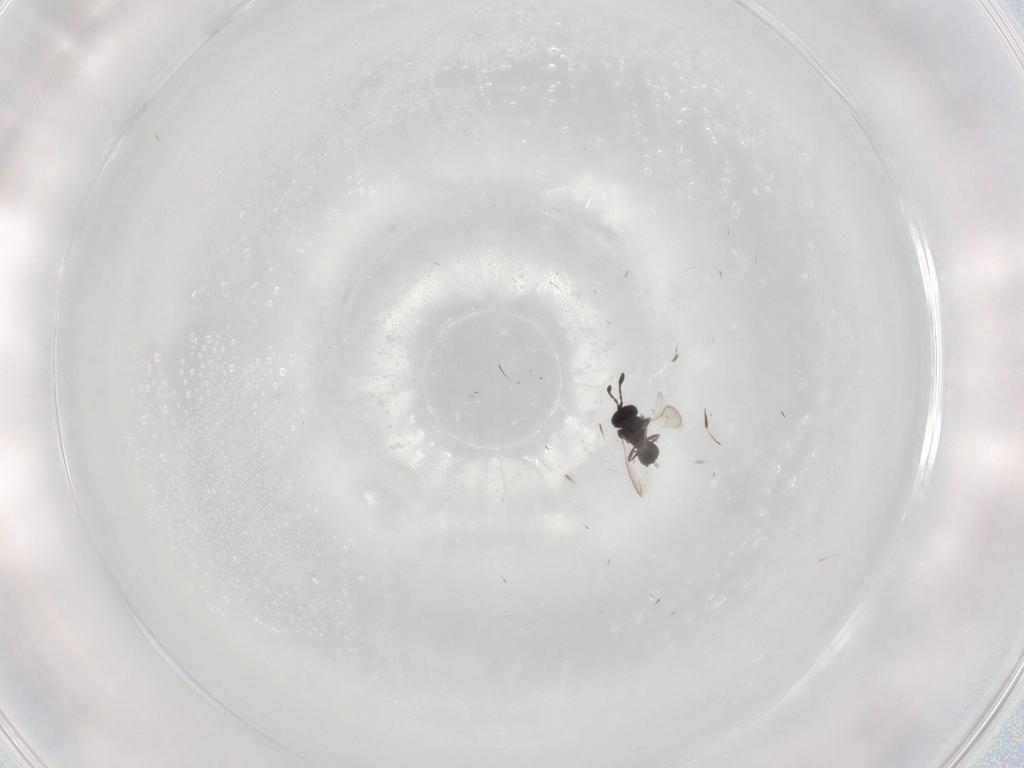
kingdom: Animalia
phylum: Arthropoda
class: Insecta
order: Hymenoptera
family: Scelionidae
